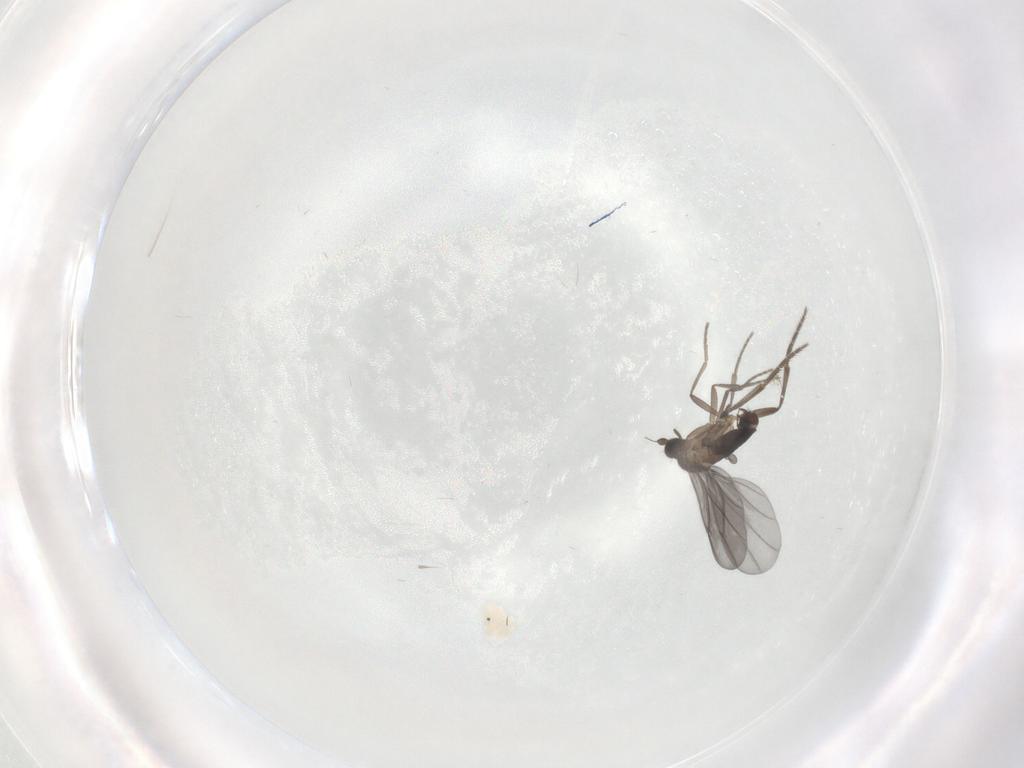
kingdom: Animalia
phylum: Arthropoda
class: Insecta
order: Diptera
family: Phoridae
